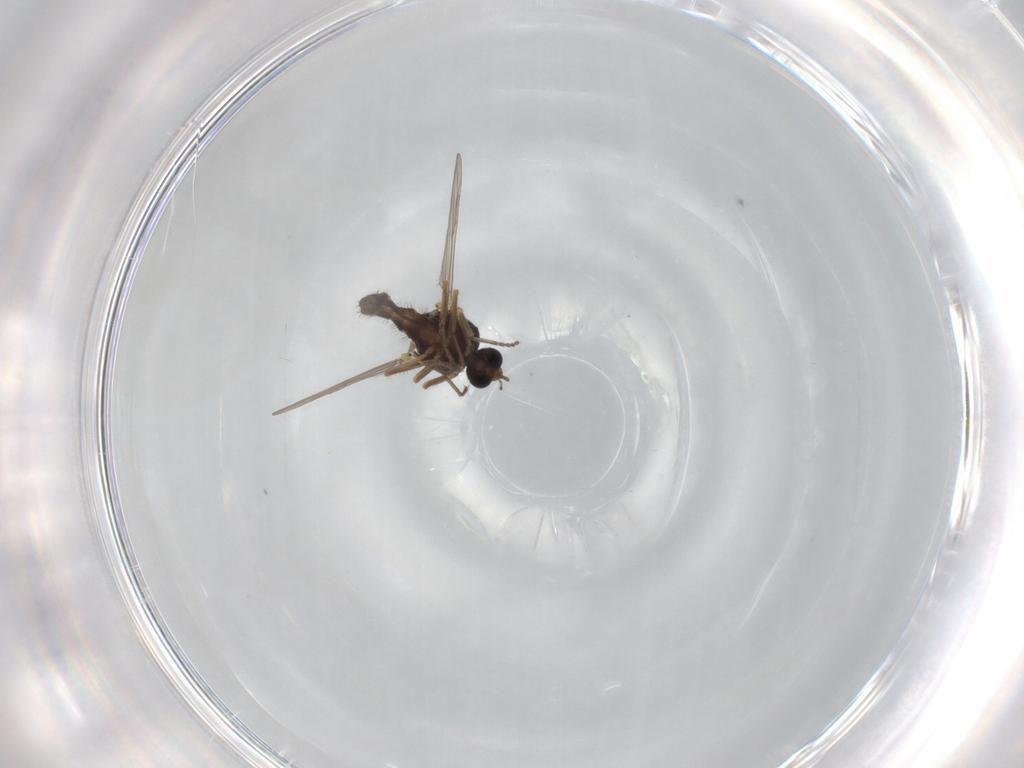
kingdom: Animalia
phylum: Arthropoda
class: Insecta
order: Diptera
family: Ceratopogonidae
